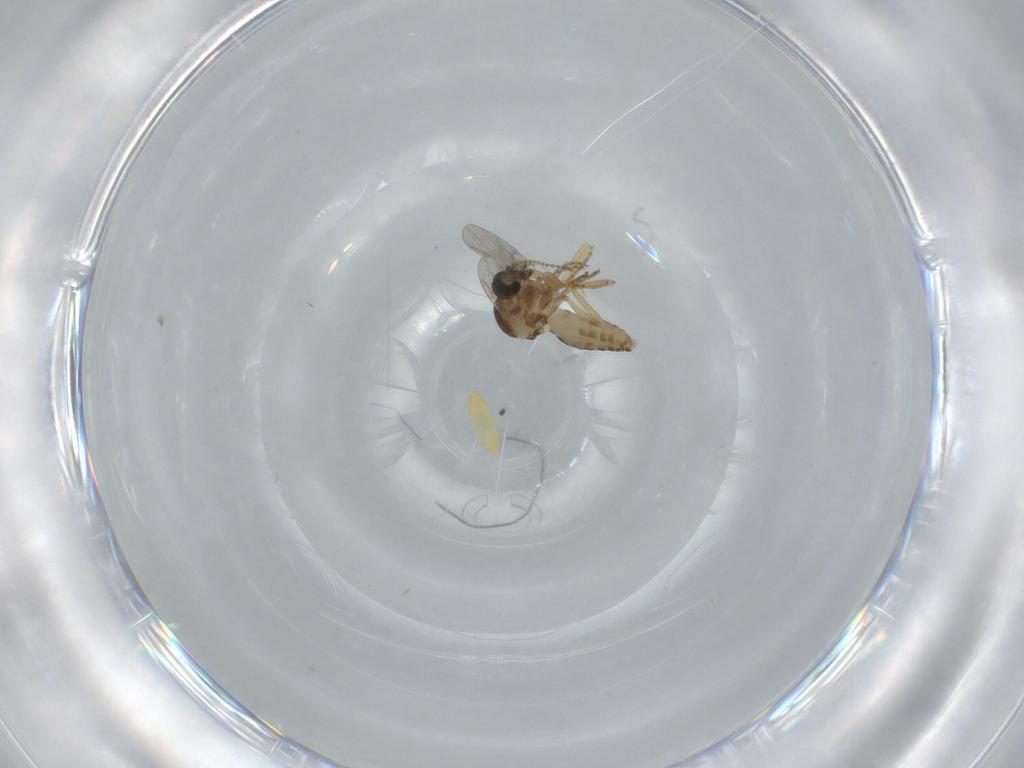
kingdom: Animalia
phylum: Arthropoda
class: Insecta
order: Diptera
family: Ceratopogonidae
